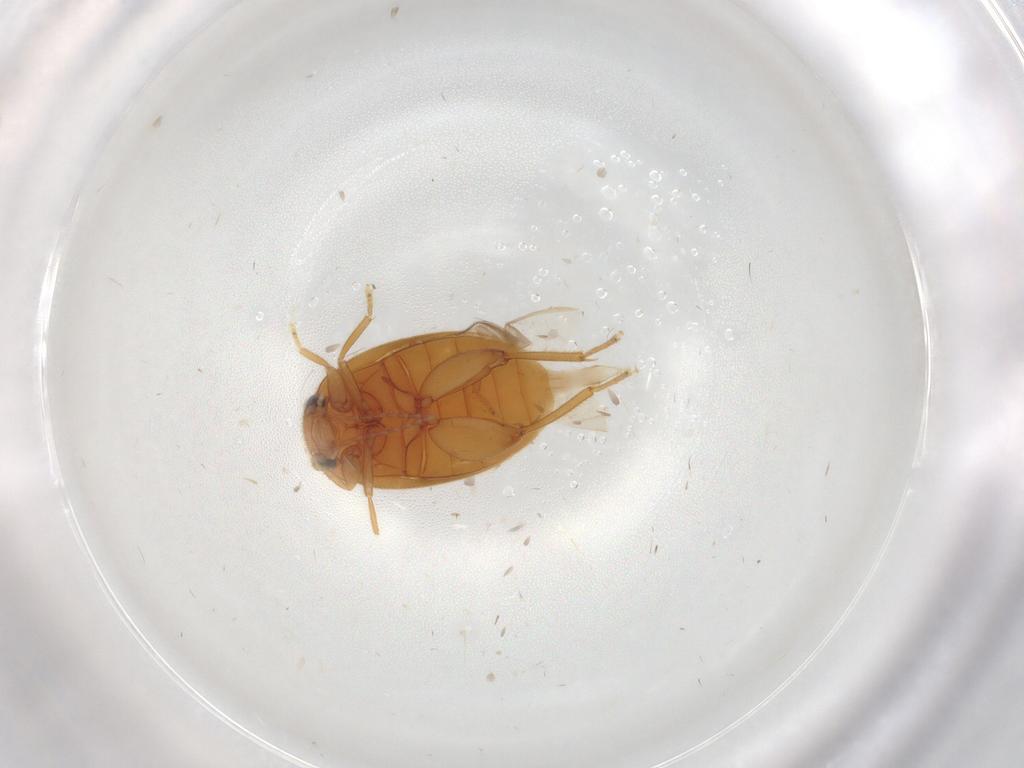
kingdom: Animalia
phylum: Arthropoda
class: Insecta
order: Coleoptera
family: Scirtidae
